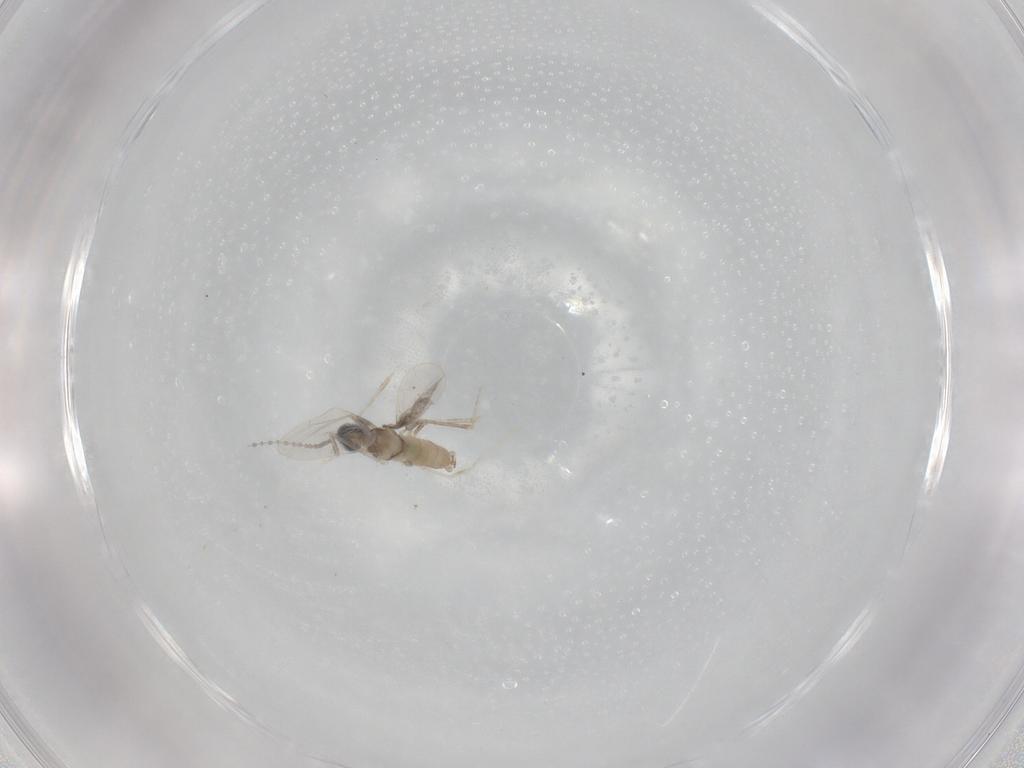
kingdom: Animalia
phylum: Arthropoda
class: Insecta
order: Diptera
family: Cecidomyiidae
